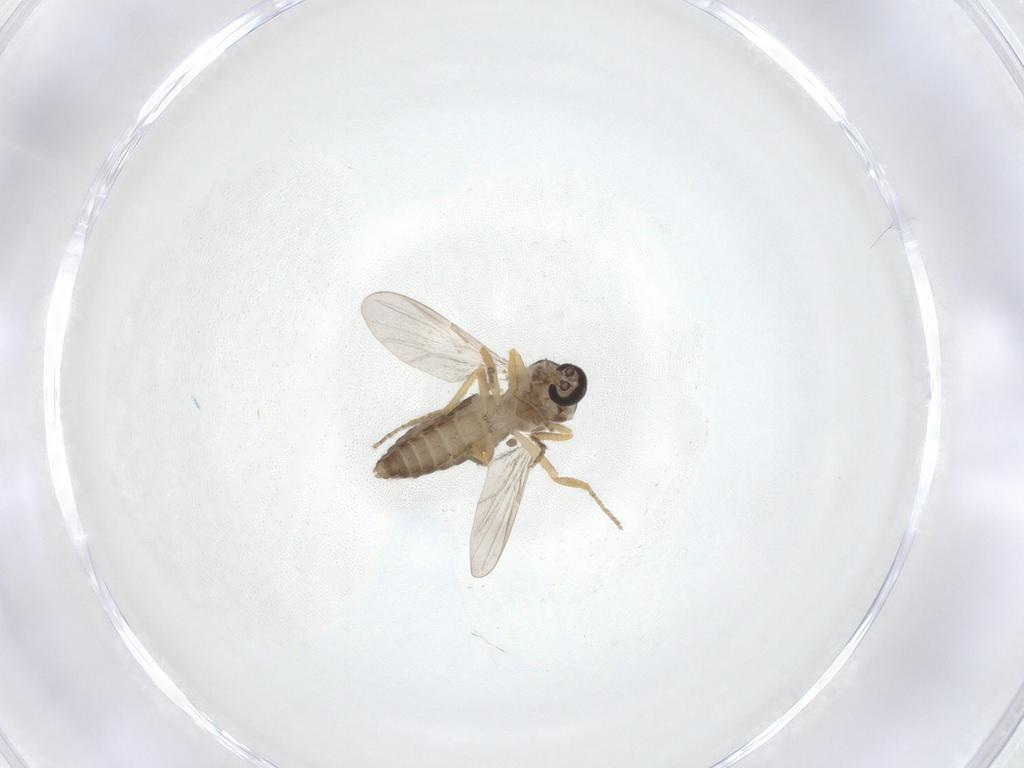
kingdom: Animalia
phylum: Arthropoda
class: Insecta
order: Diptera
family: Ceratopogonidae
